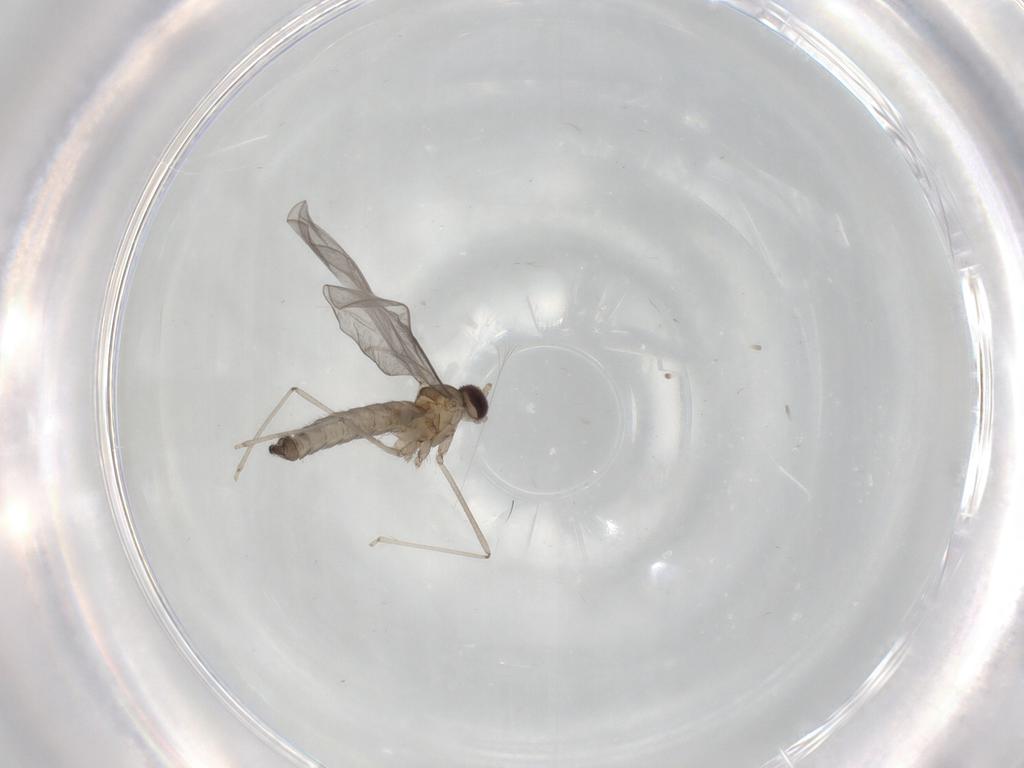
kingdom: Animalia
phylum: Arthropoda
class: Insecta
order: Diptera
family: Cecidomyiidae
